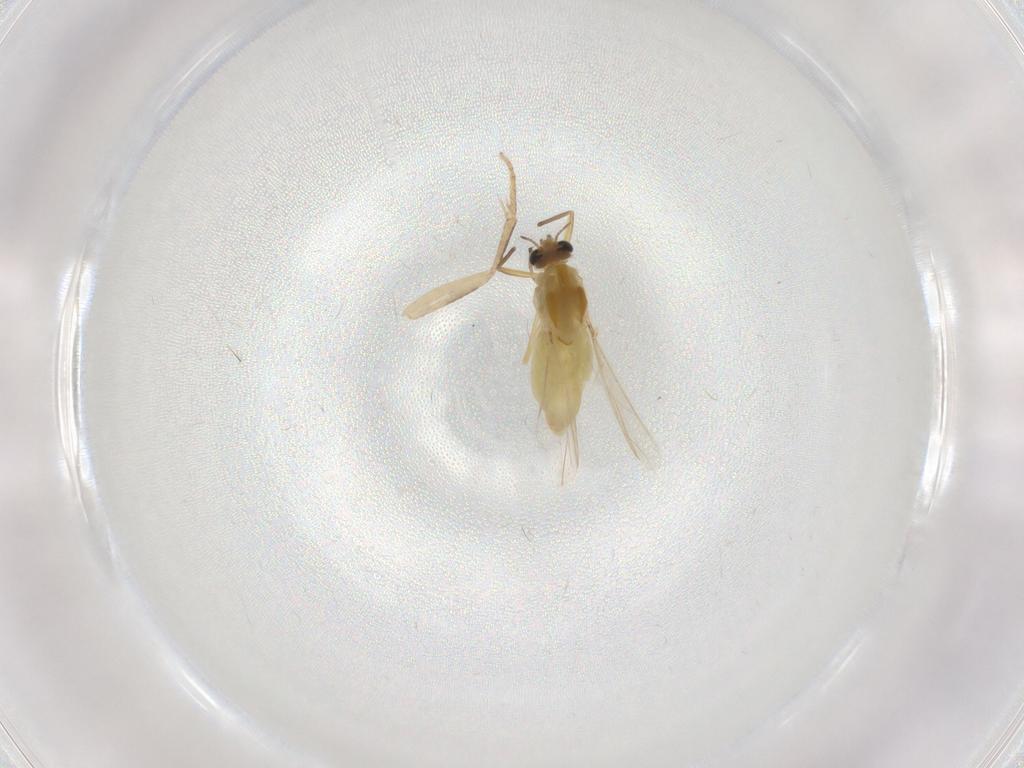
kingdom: Animalia
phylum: Arthropoda
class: Insecta
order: Diptera
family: Chironomidae
